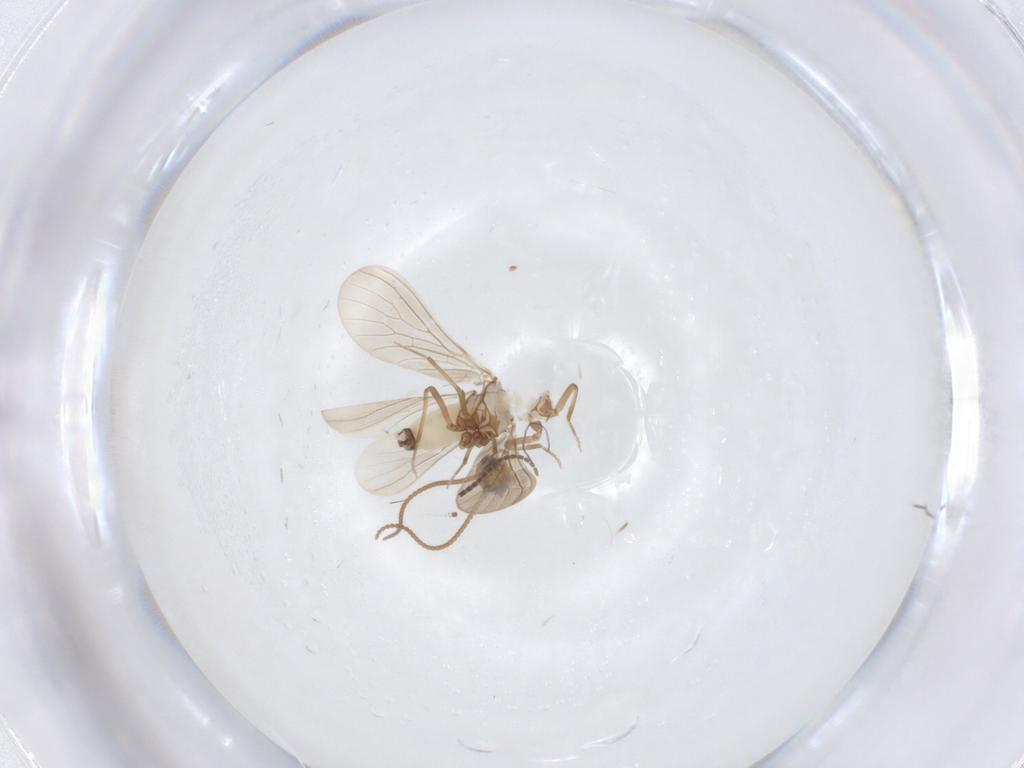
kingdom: Animalia
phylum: Arthropoda
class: Insecta
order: Neuroptera
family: Coniopterygidae
